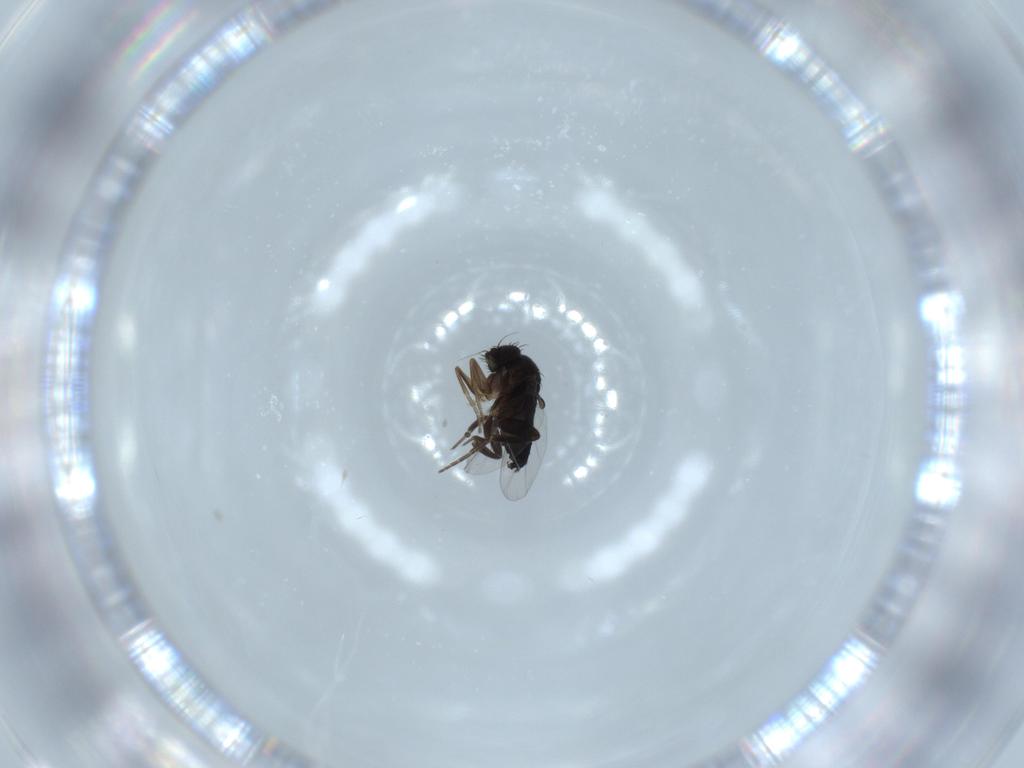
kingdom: Animalia
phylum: Arthropoda
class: Insecta
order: Diptera
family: Phoridae
